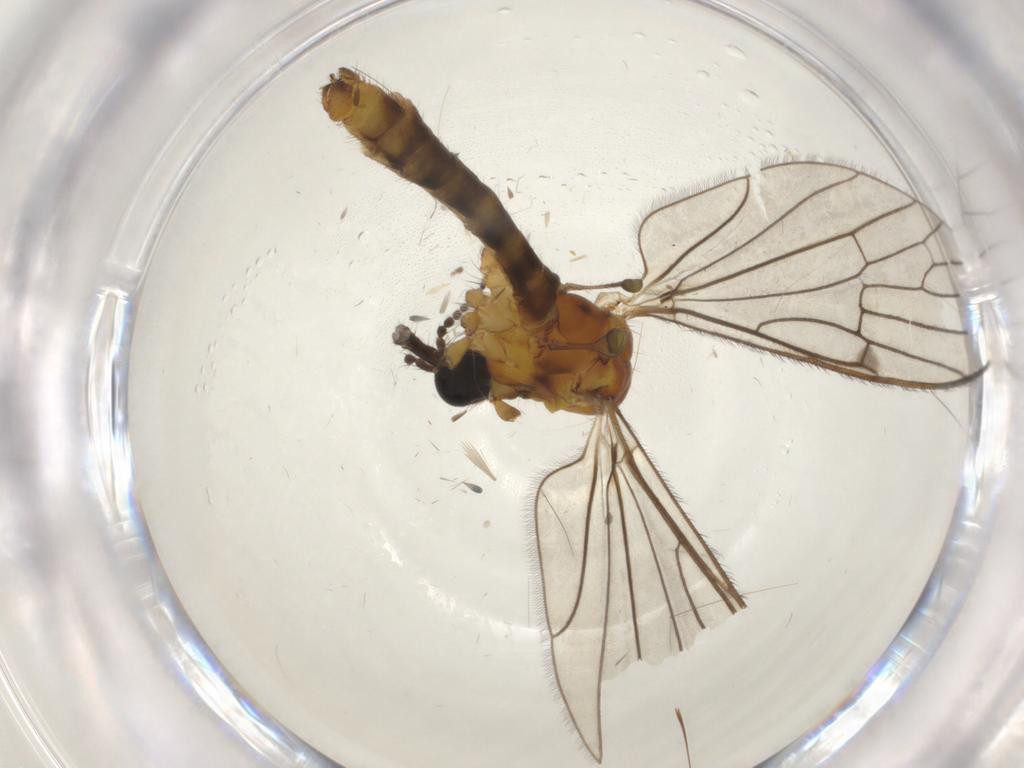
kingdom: Animalia
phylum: Arthropoda
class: Insecta
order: Diptera
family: Limoniidae
